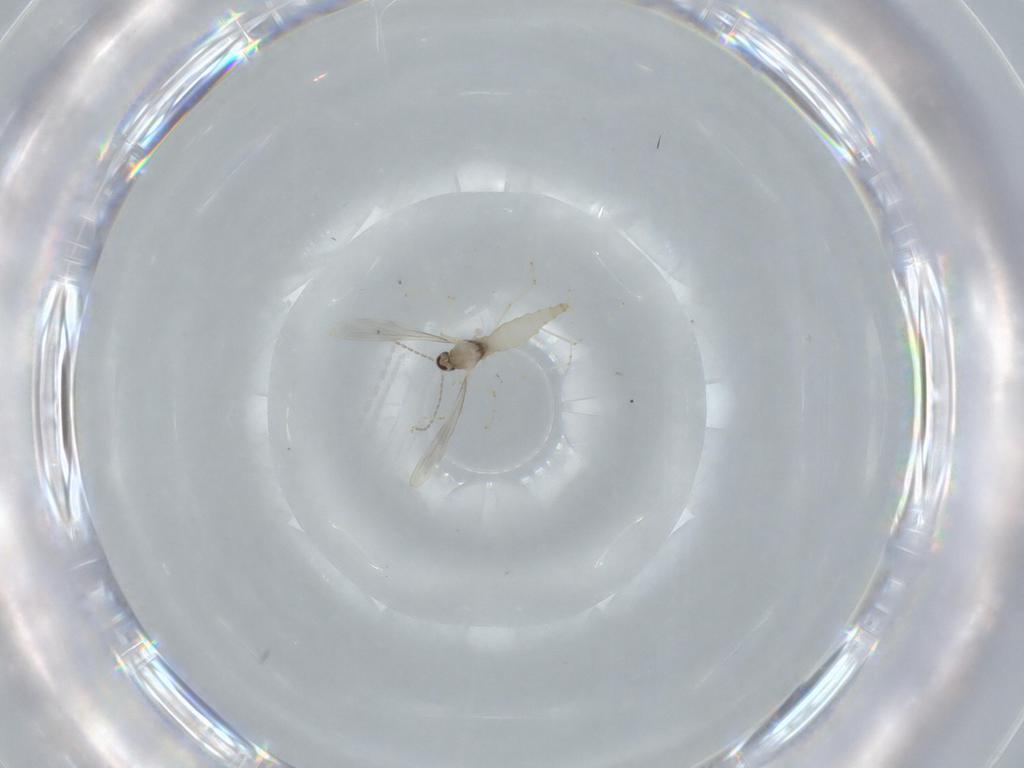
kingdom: Animalia
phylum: Arthropoda
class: Insecta
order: Diptera
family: Cecidomyiidae
